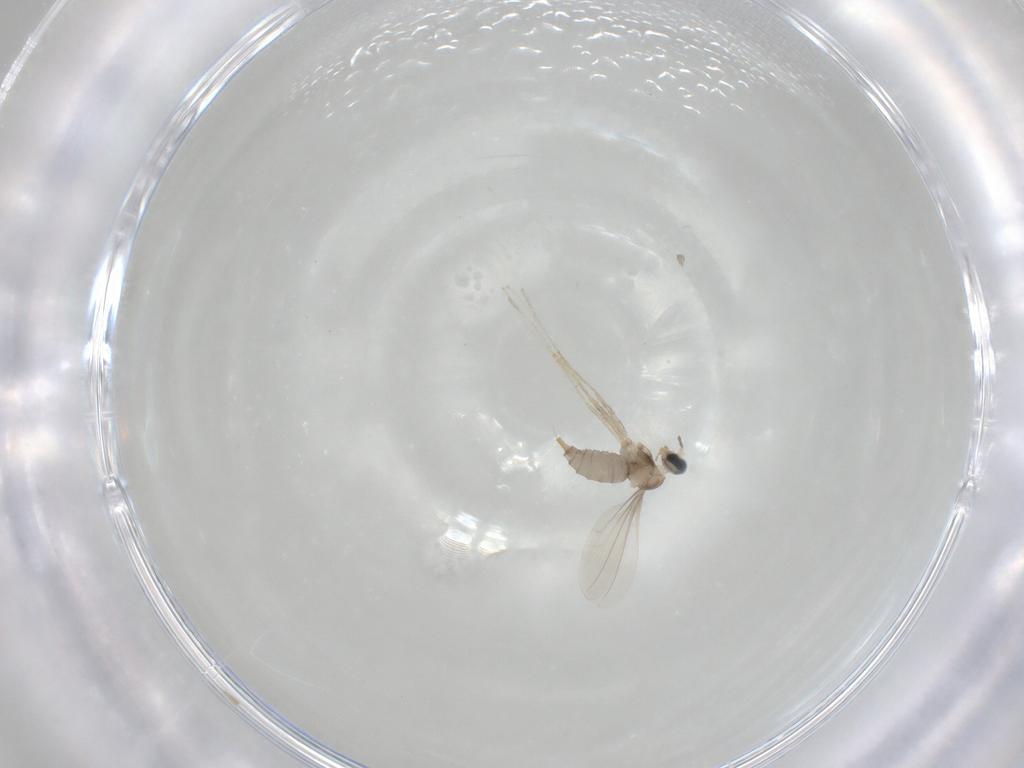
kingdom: Animalia
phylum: Arthropoda
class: Insecta
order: Diptera
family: Cecidomyiidae
